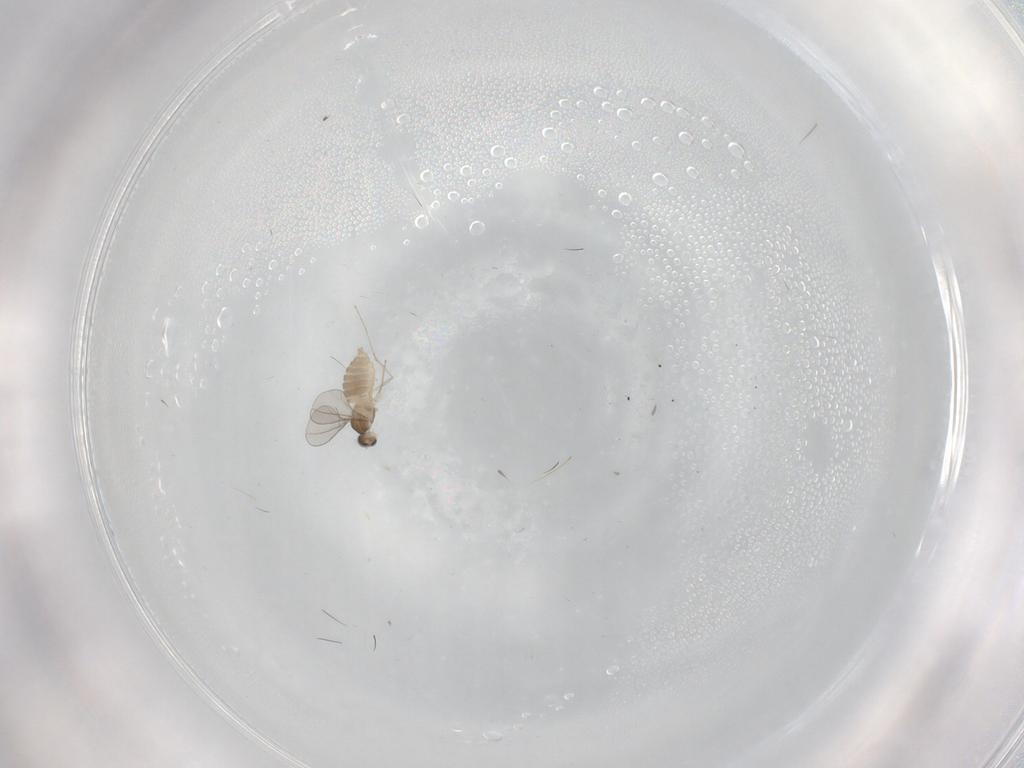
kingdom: Animalia
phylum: Arthropoda
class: Insecta
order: Diptera
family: Cecidomyiidae
